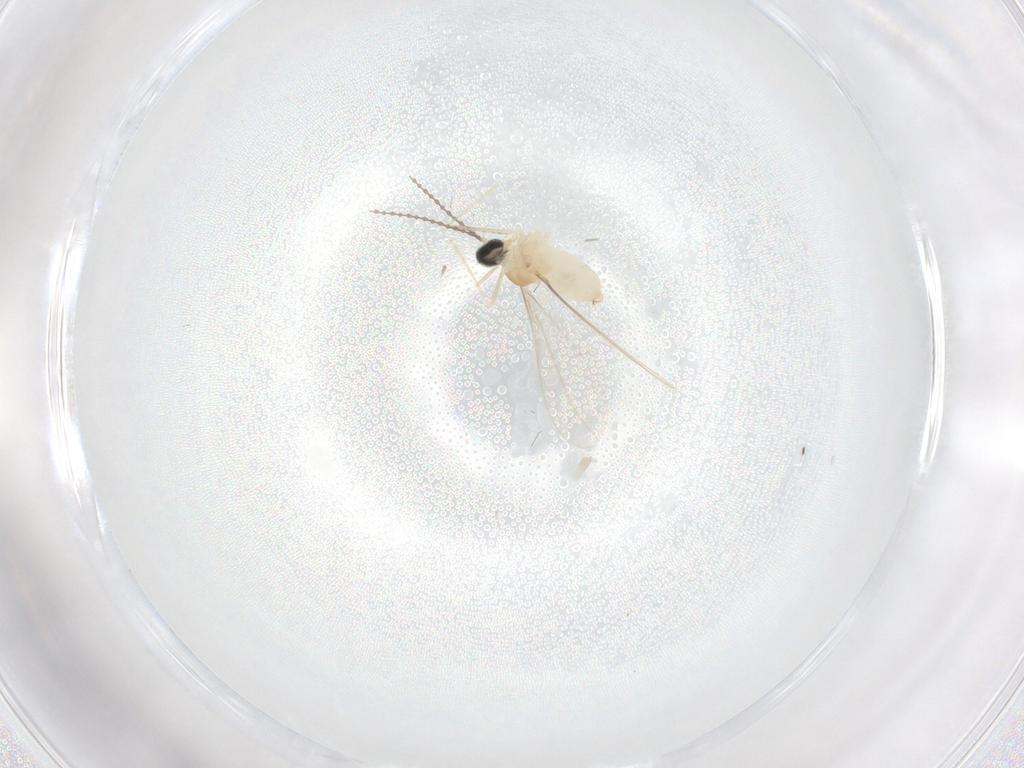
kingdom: Animalia
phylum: Arthropoda
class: Insecta
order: Diptera
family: Cecidomyiidae
